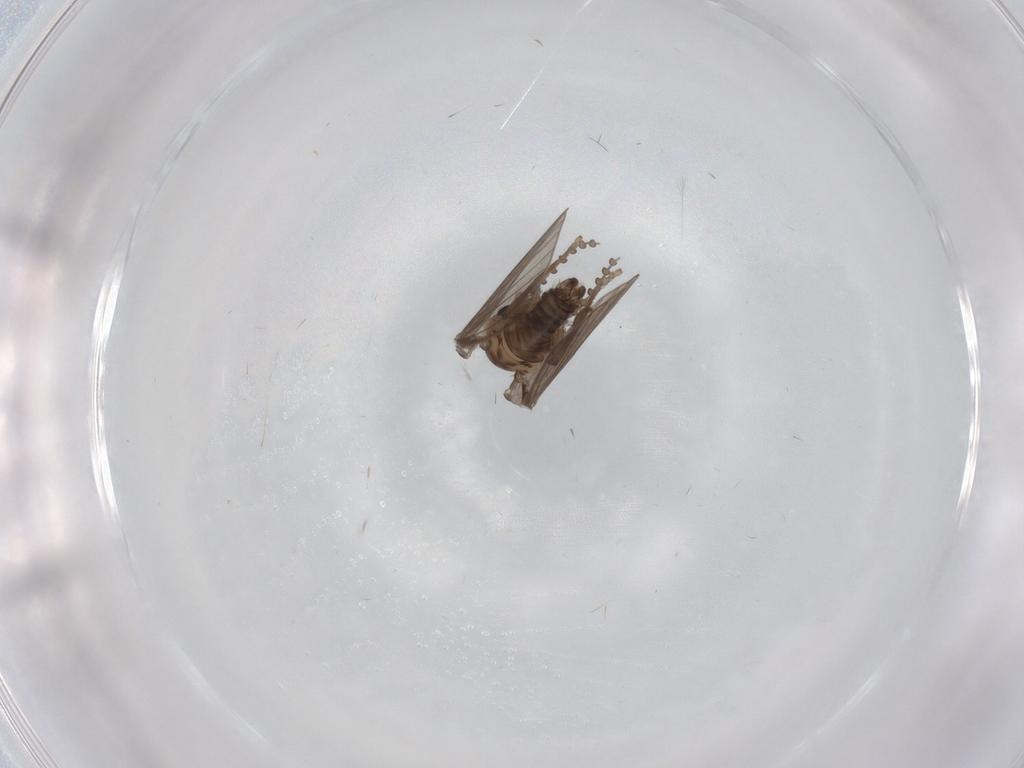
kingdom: Animalia
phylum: Arthropoda
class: Insecta
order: Diptera
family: Psychodidae
